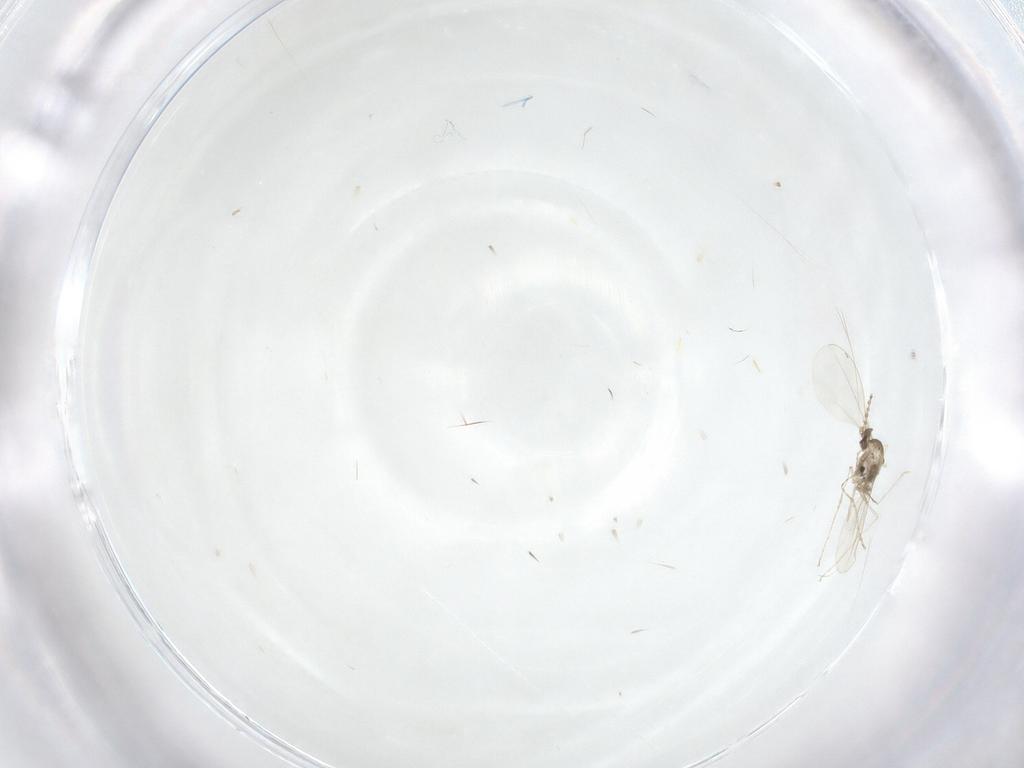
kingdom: Animalia
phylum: Arthropoda
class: Insecta
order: Diptera
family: Cecidomyiidae
